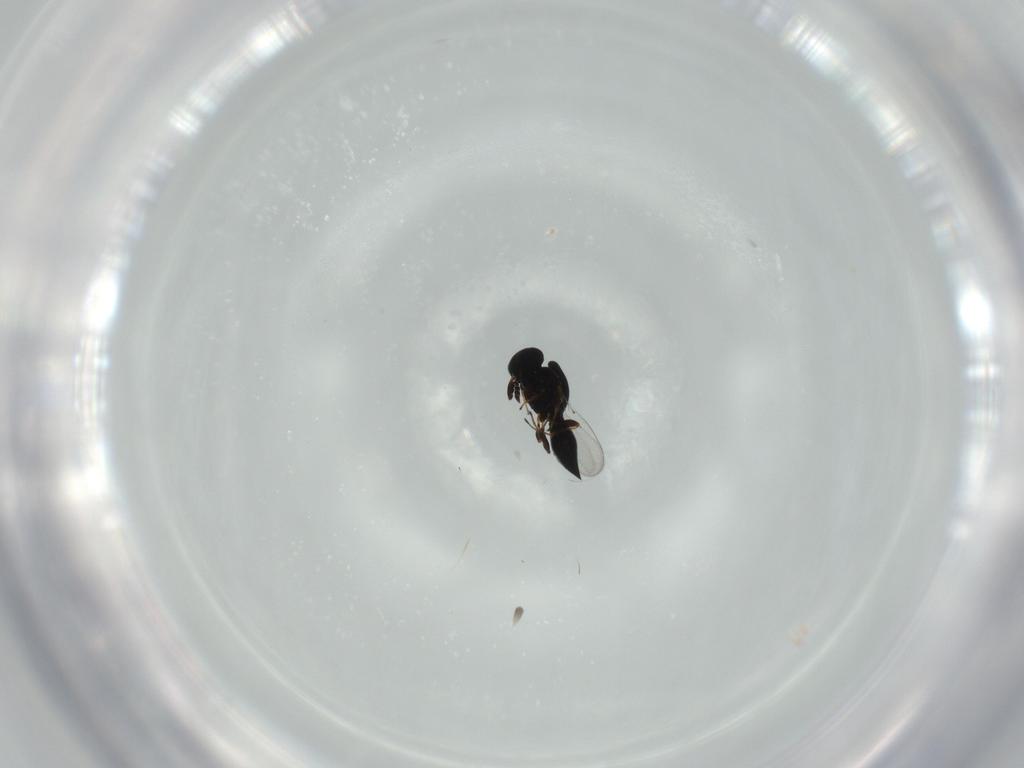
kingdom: Animalia
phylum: Arthropoda
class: Insecta
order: Hymenoptera
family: Platygastridae
